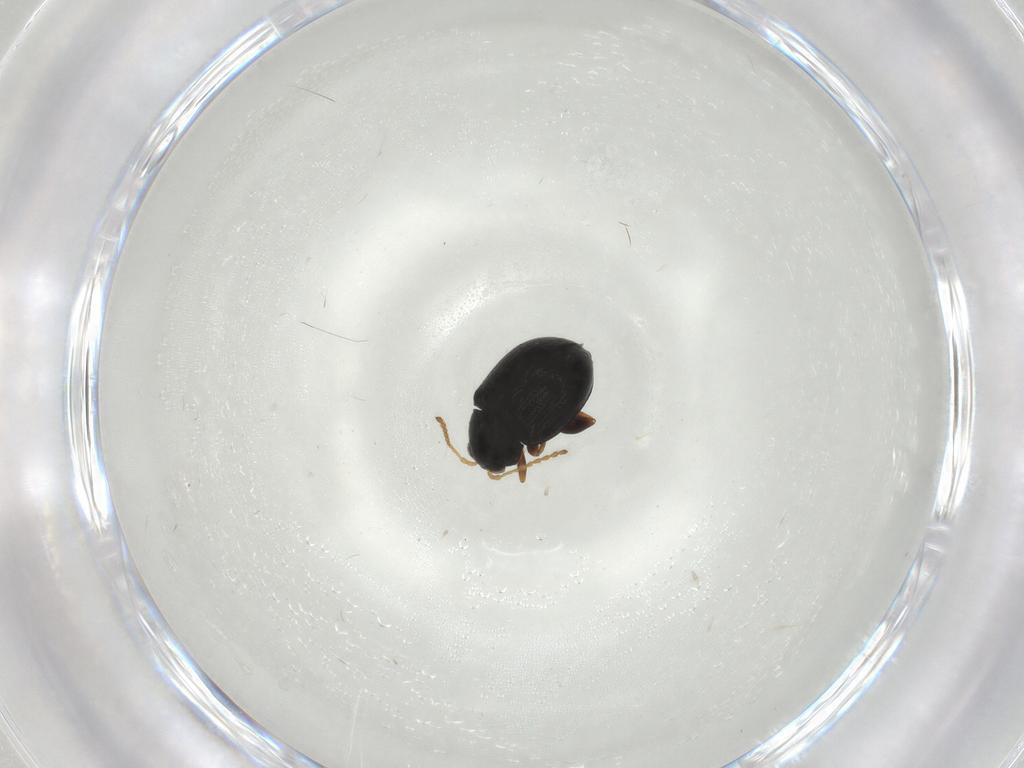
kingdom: Animalia
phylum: Arthropoda
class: Insecta
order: Coleoptera
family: Chrysomelidae
